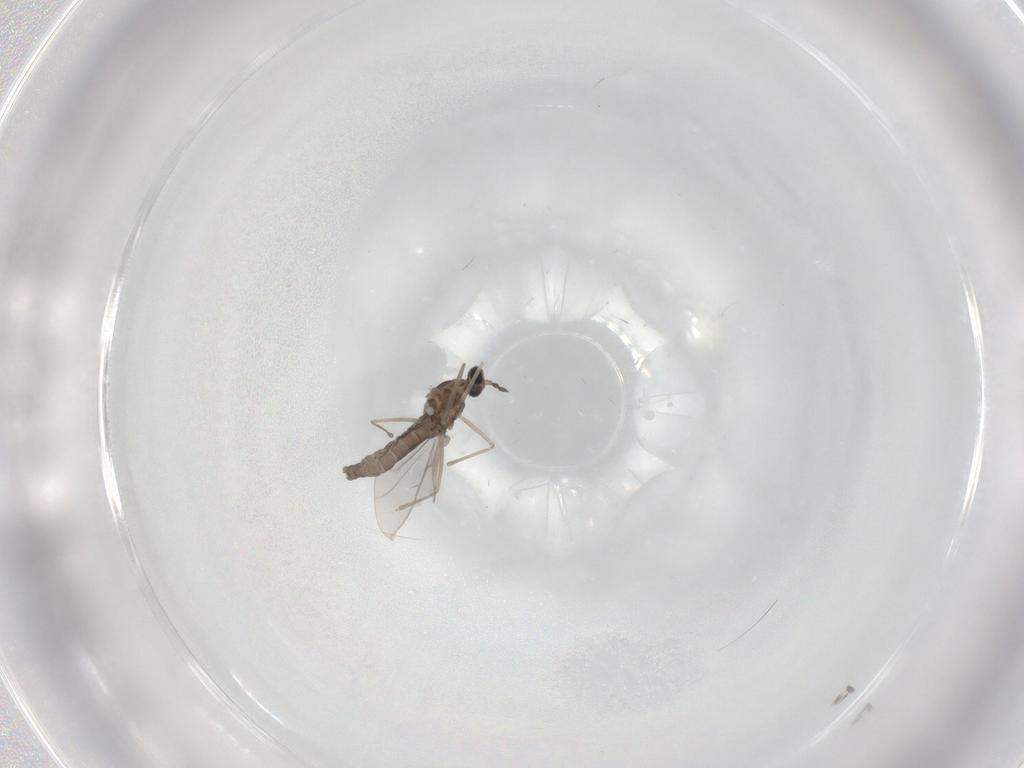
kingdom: Animalia
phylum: Arthropoda
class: Insecta
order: Diptera
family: Cecidomyiidae
